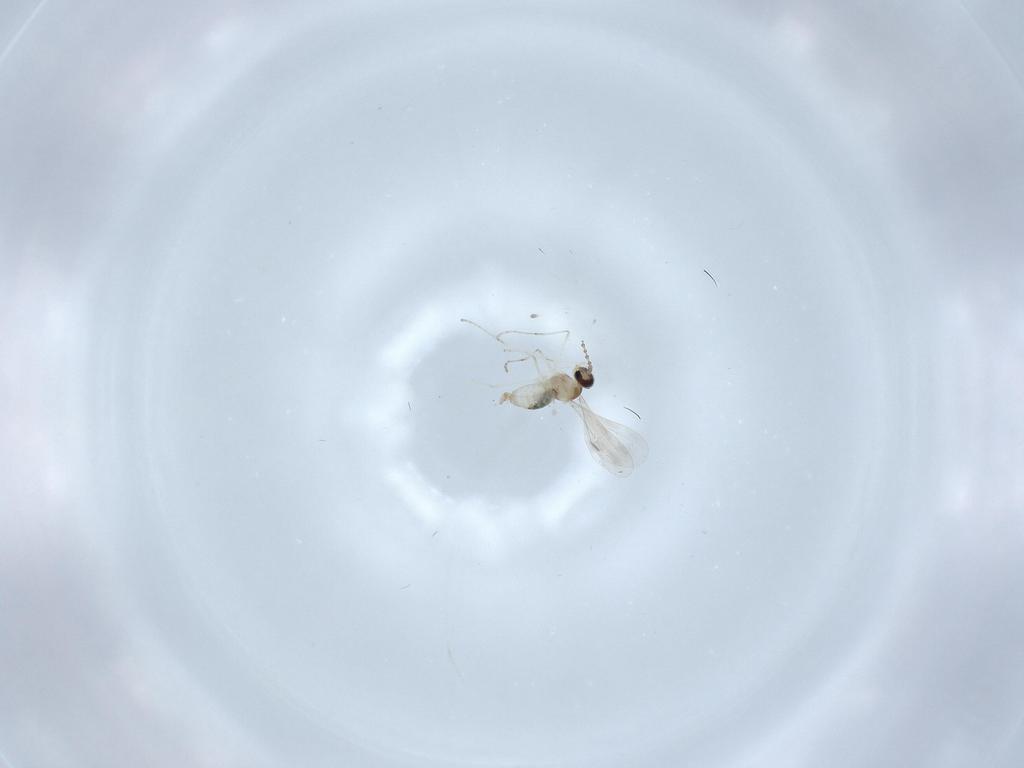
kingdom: Animalia
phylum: Arthropoda
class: Insecta
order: Diptera
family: Cecidomyiidae
